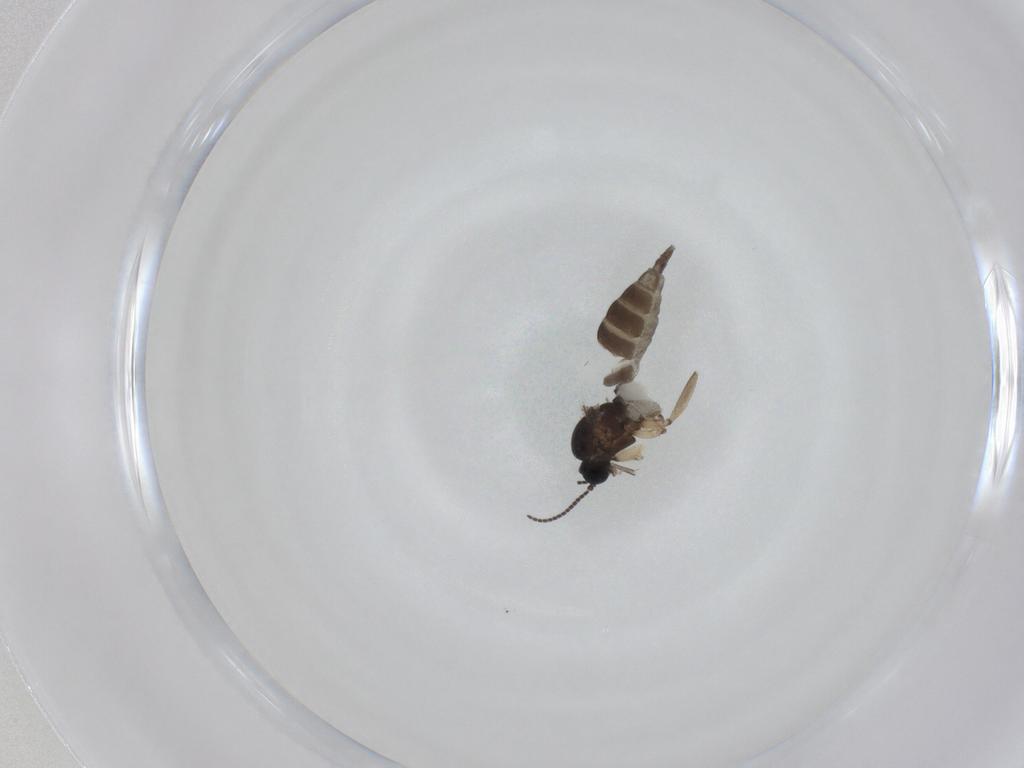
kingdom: Animalia
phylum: Arthropoda
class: Insecta
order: Diptera
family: Sciaridae
